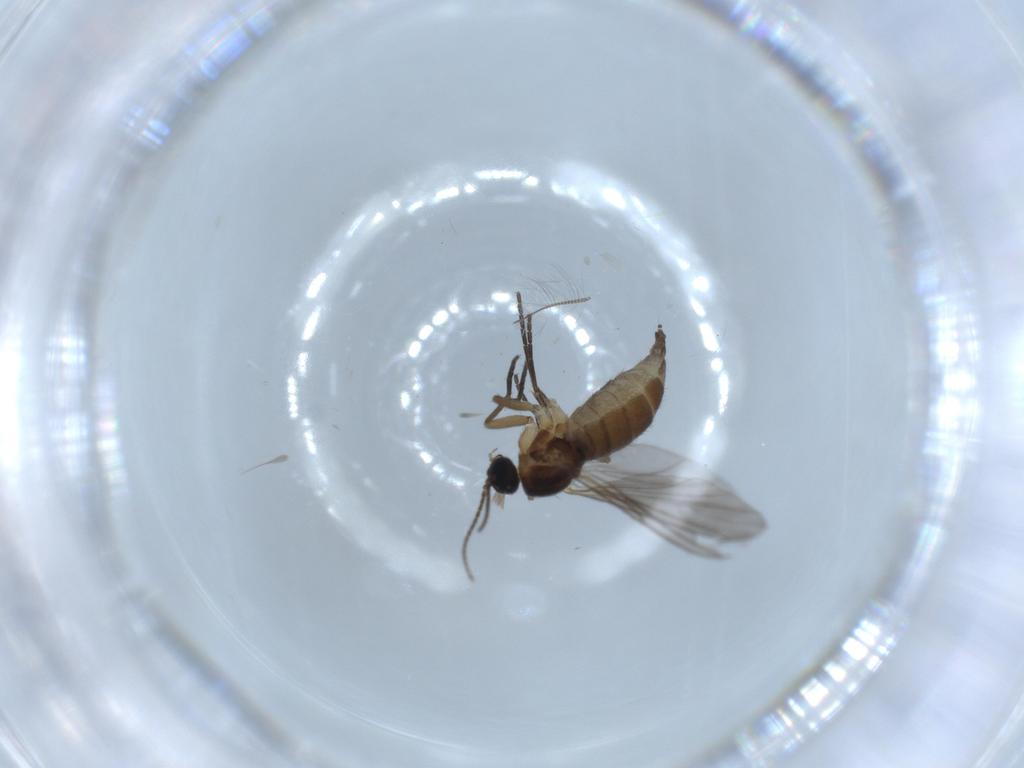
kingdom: Animalia
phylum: Arthropoda
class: Insecta
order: Diptera
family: Sciaridae
